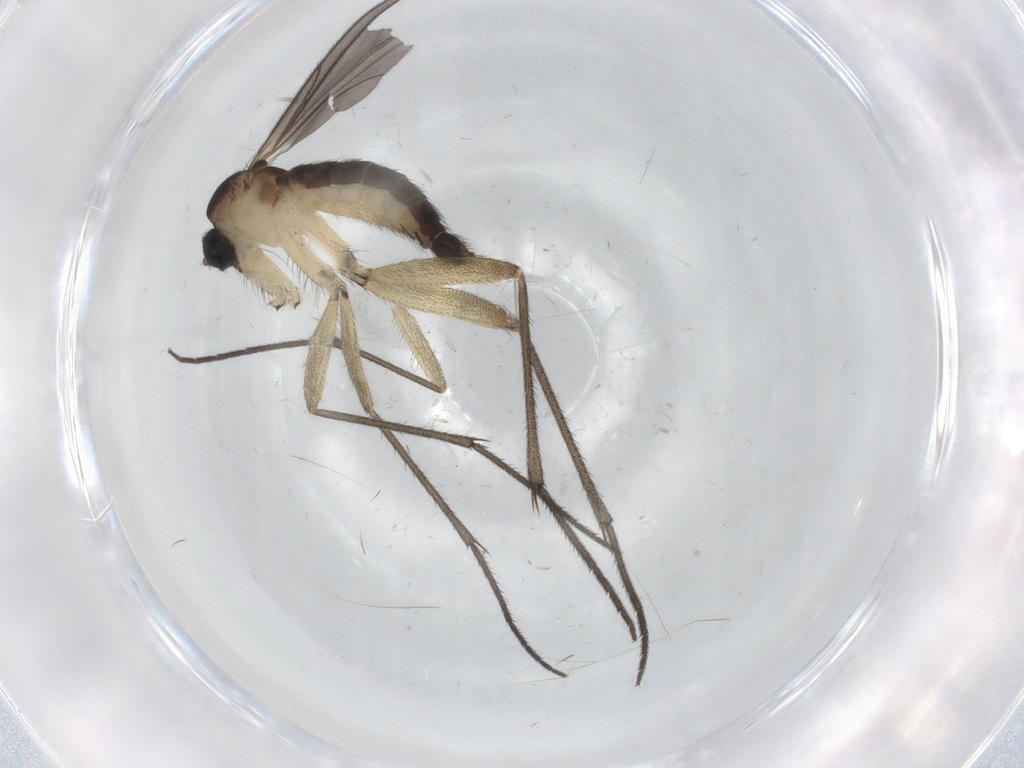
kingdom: Animalia
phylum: Arthropoda
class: Insecta
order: Diptera
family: Sciaridae
